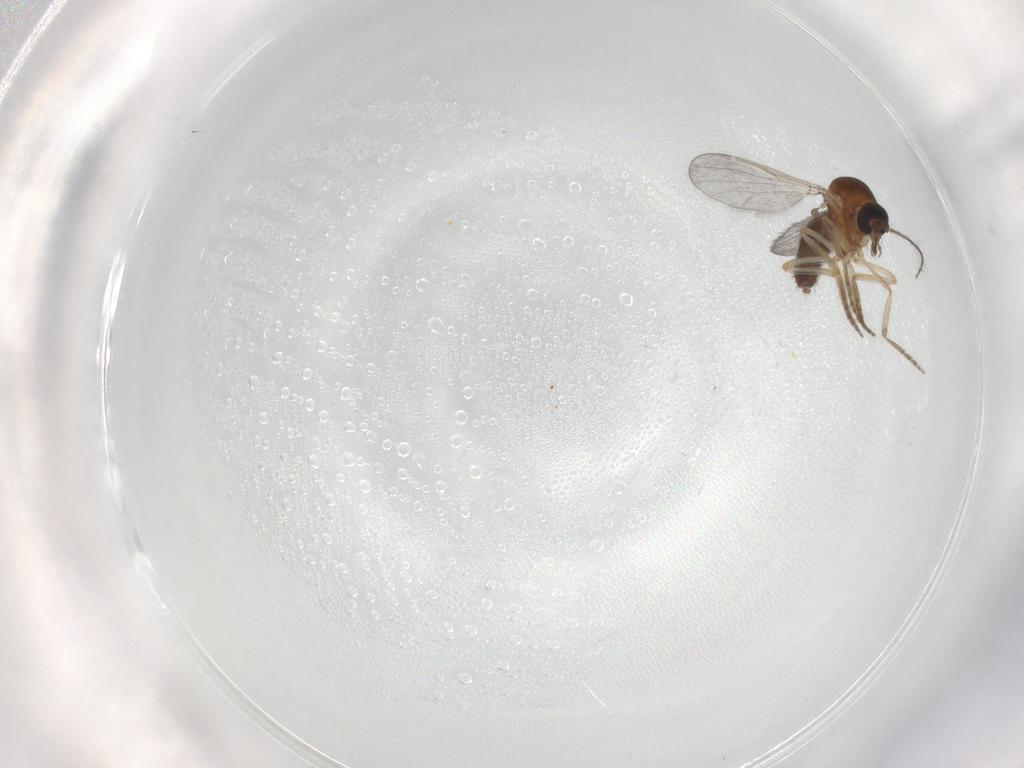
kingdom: Animalia
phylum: Arthropoda
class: Insecta
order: Diptera
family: Ceratopogonidae
